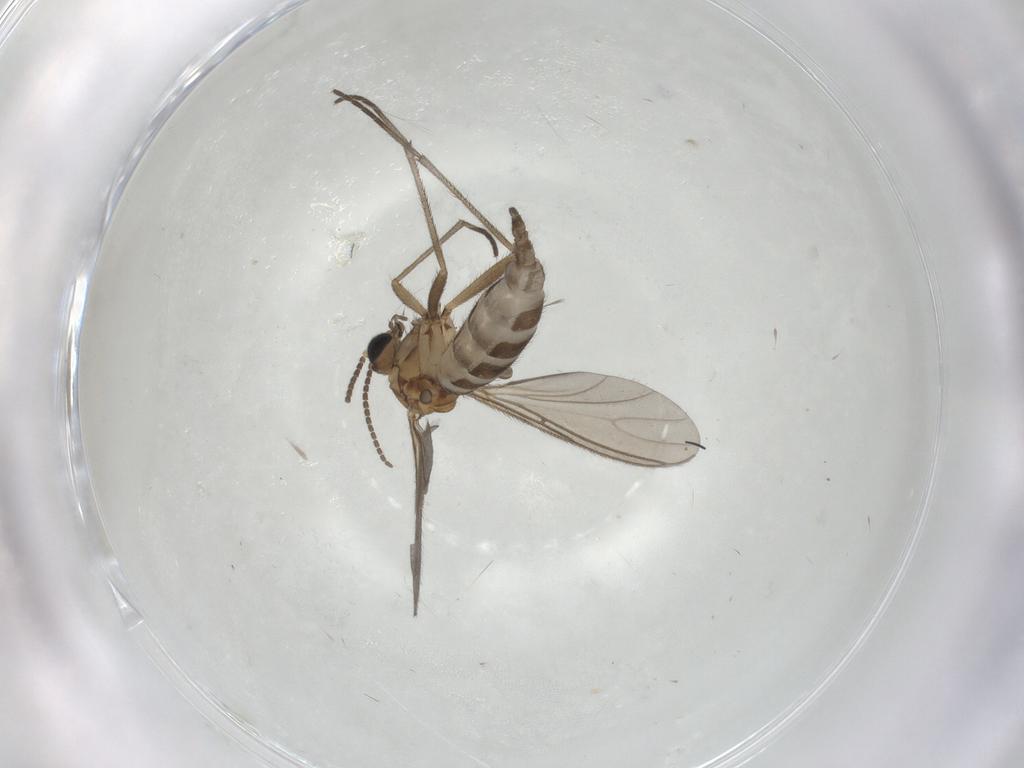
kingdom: Animalia
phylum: Arthropoda
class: Insecta
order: Diptera
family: Sciaridae
